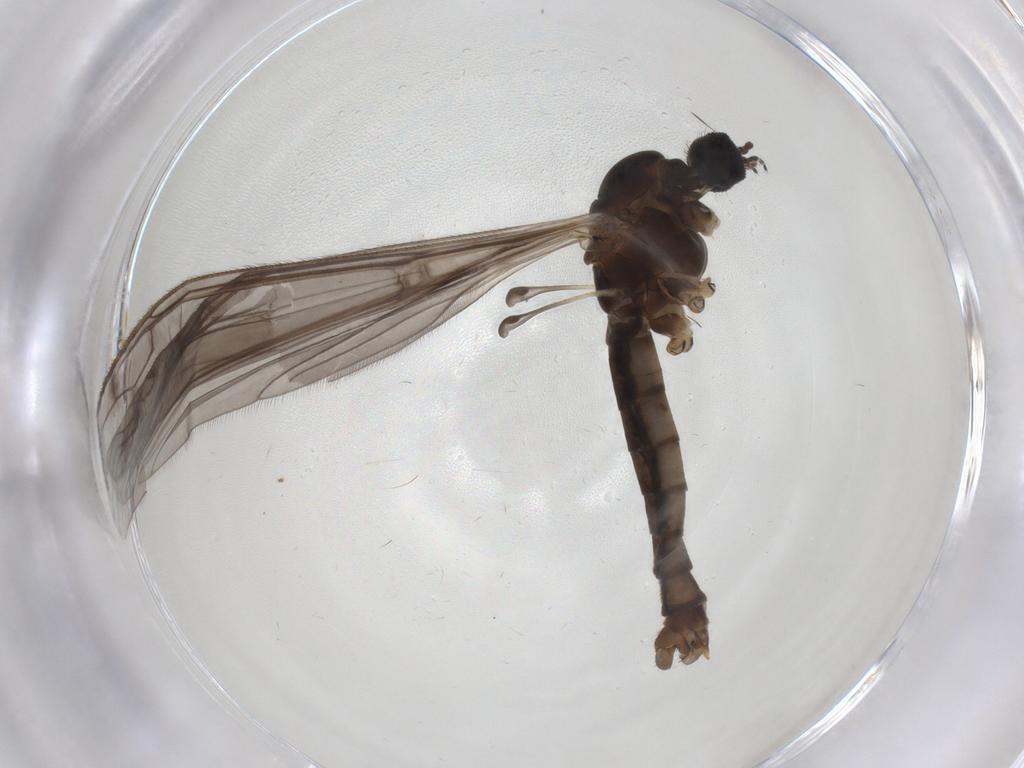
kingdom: Animalia
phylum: Arthropoda
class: Insecta
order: Diptera
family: Phoridae
